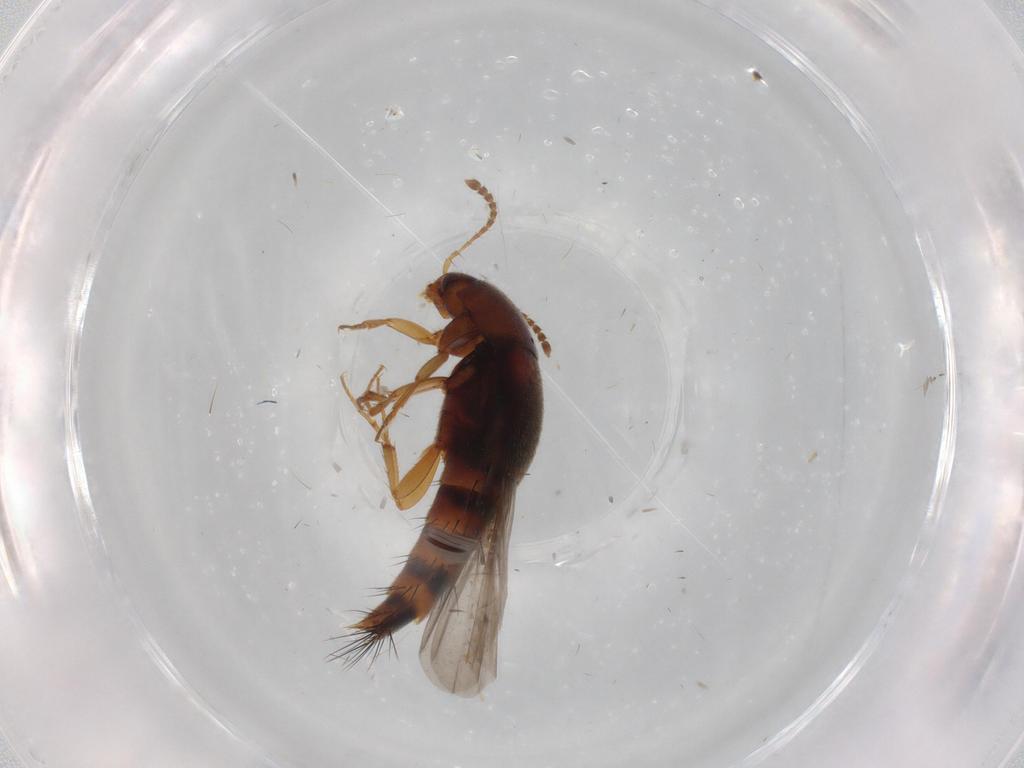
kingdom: Animalia
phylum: Arthropoda
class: Insecta
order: Coleoptera
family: Staphylinidae
